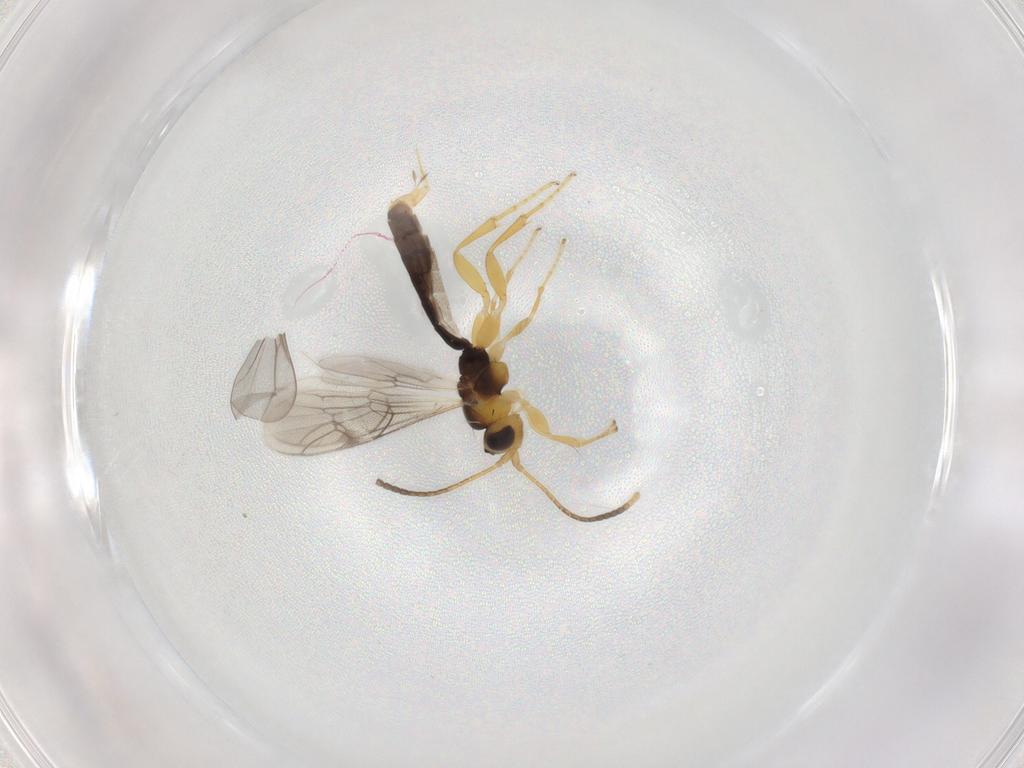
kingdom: Animalia
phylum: Arthropoda
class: Insecta
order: Hymenoptera
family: Ichneumonidae
